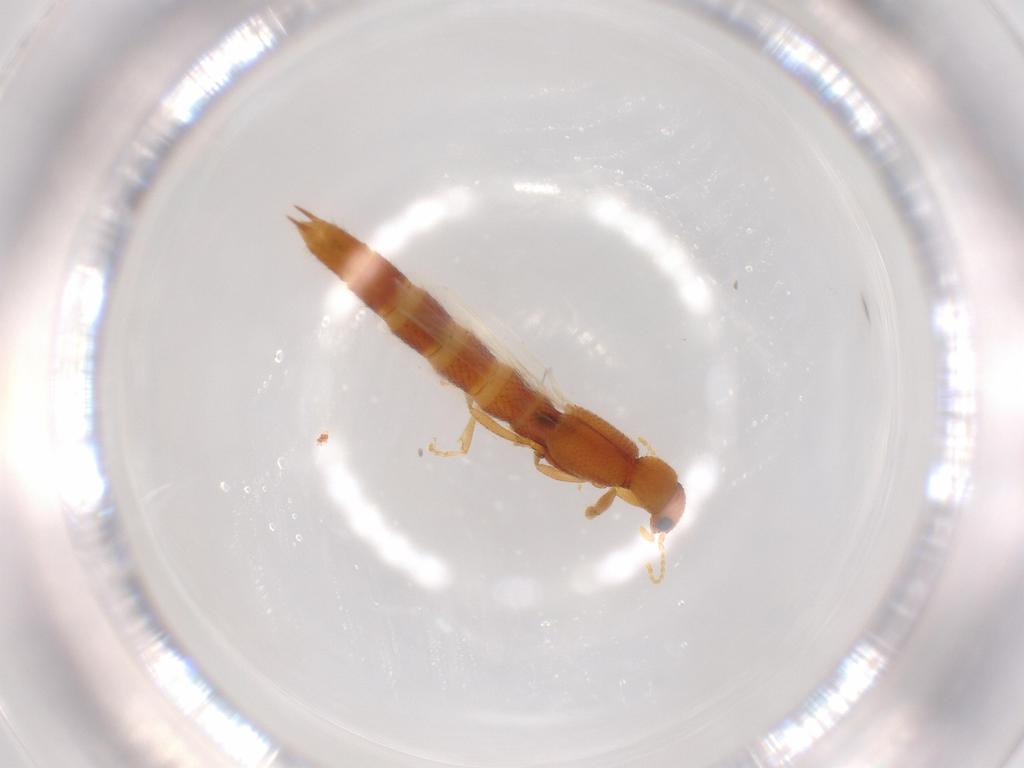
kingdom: Animalia
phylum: Arthropoda
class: Insecta
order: Coleoptera
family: Staphylinidae
